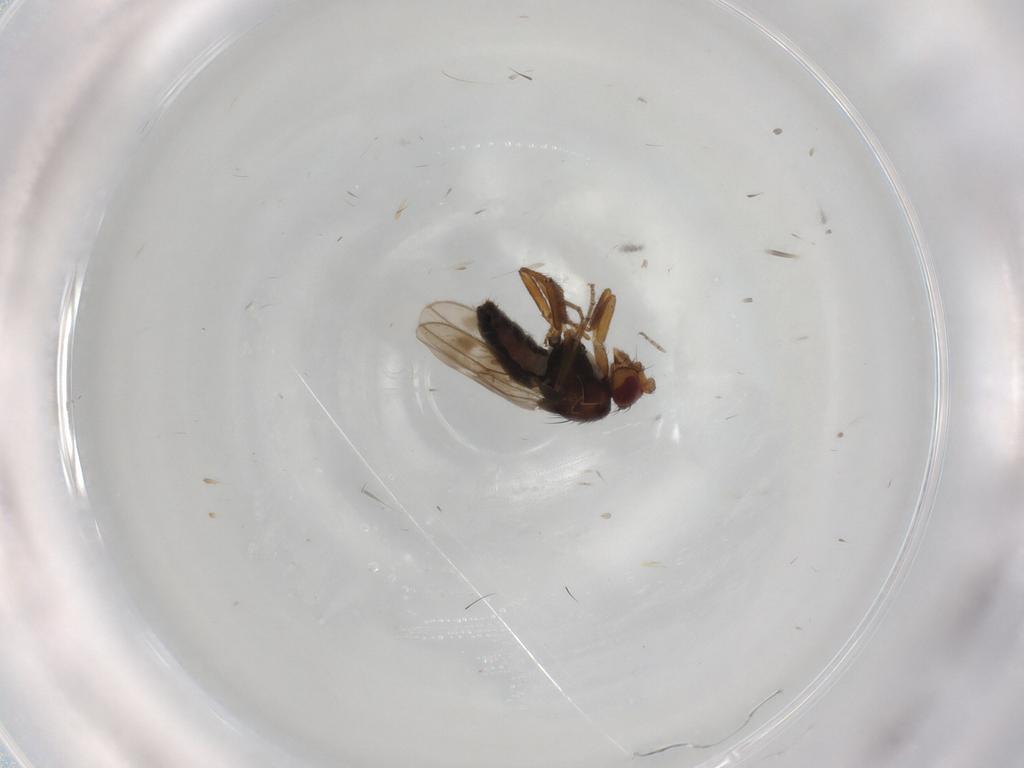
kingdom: Animalia
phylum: Arthropoda
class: Insecta
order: Diptera
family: Sphaeroceridae
